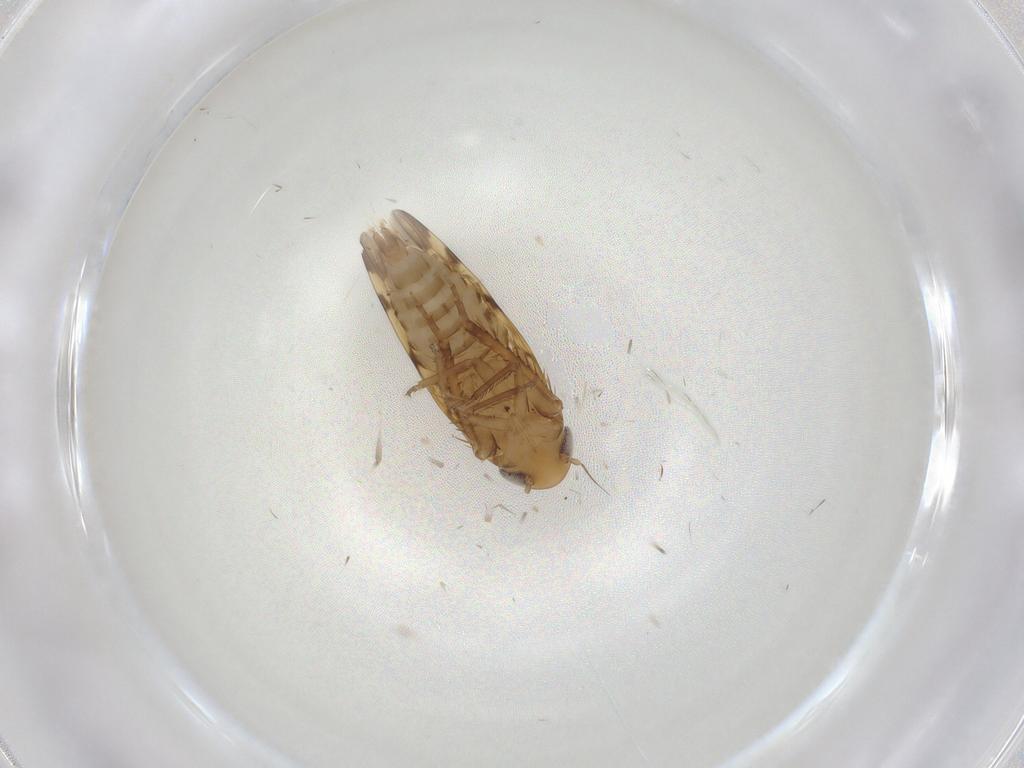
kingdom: Animalia
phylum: Arthropoda
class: Insecta
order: Hemiptera
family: Cicadellidae
